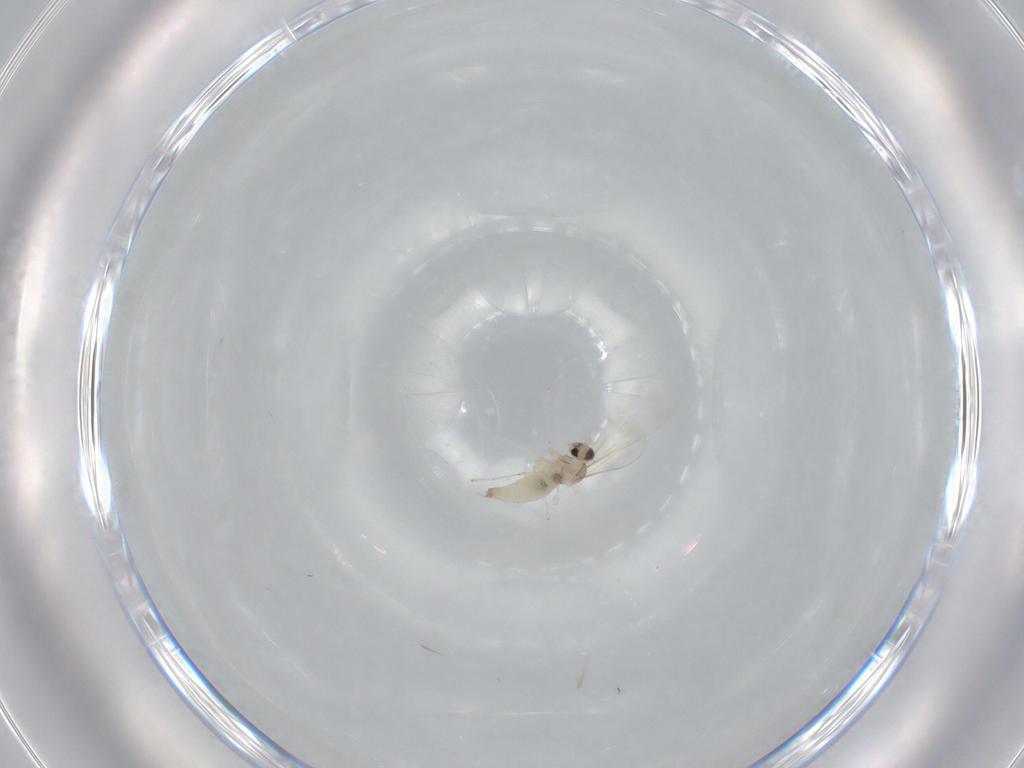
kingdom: Animalia
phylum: Arthropoda
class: Insecta
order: Diptera
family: Cecidomyiidae
